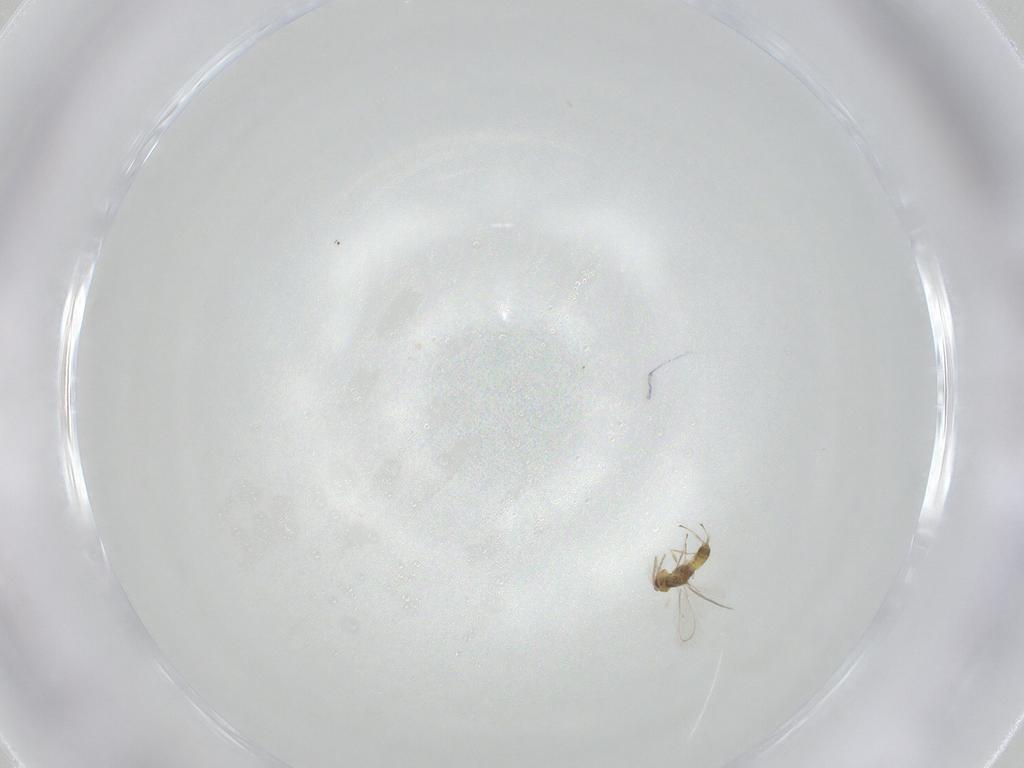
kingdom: Animalia
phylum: Arthropoda
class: Insecta
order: Hymenoptera
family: Eulophidae
